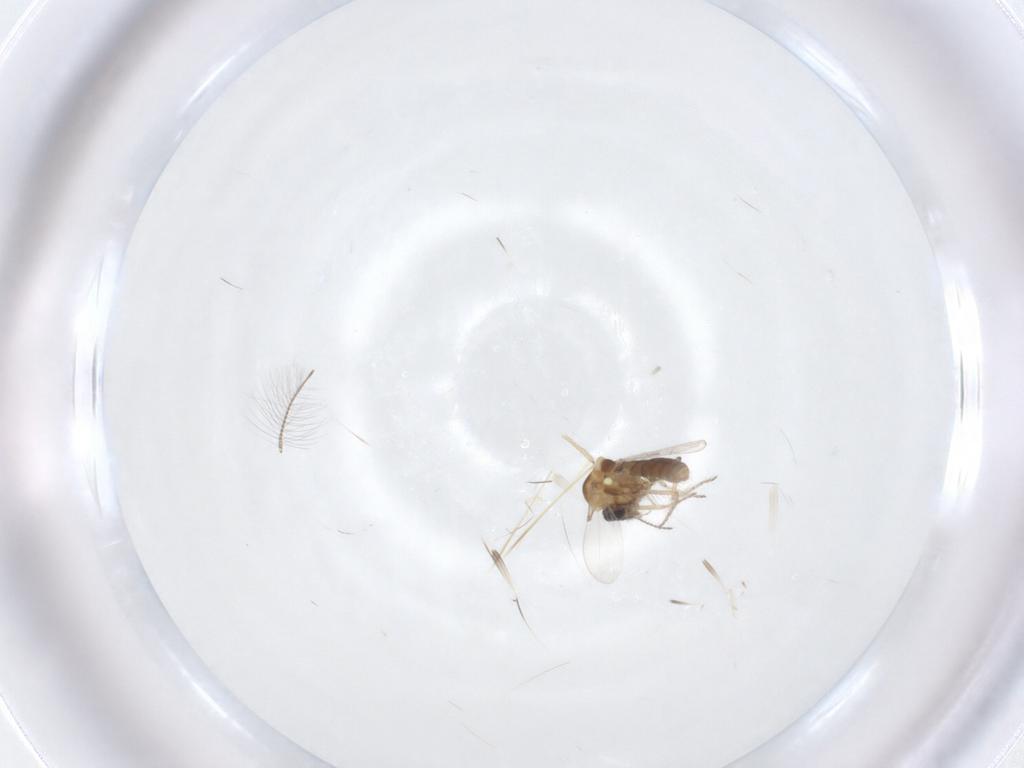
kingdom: Animalia
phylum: Arthropoda
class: Insecta
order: Diptera
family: Ceratopogonidae
